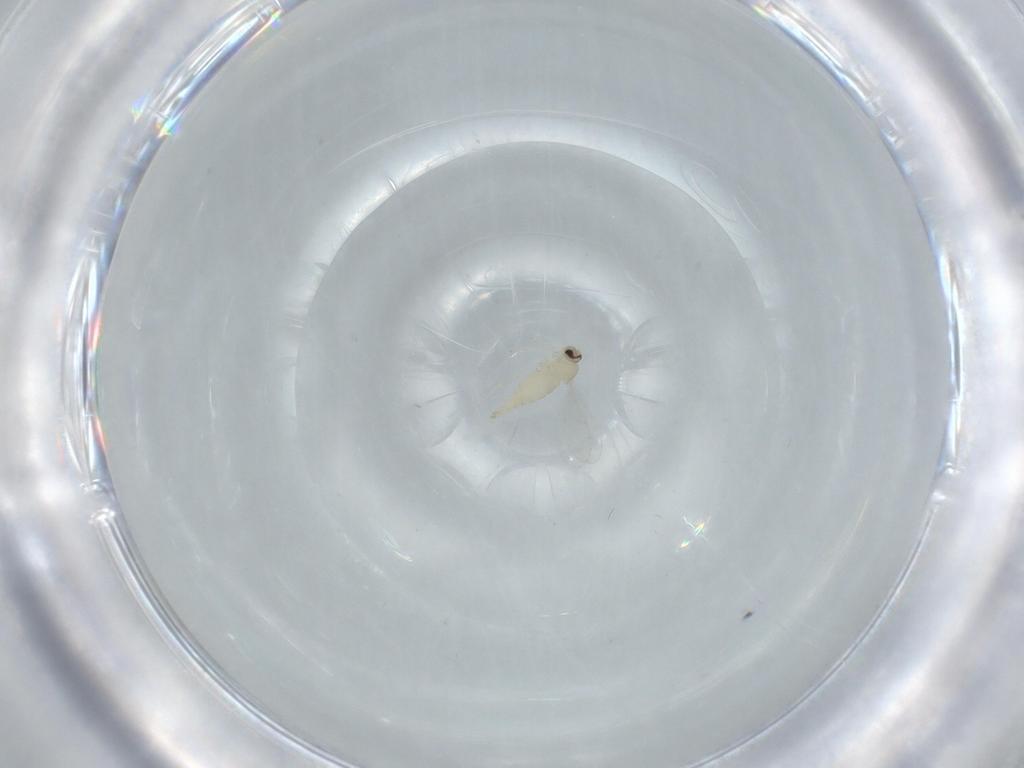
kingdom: Animalia
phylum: Arthropoda
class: Insecta
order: Diptera
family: Cecidomyiidae
